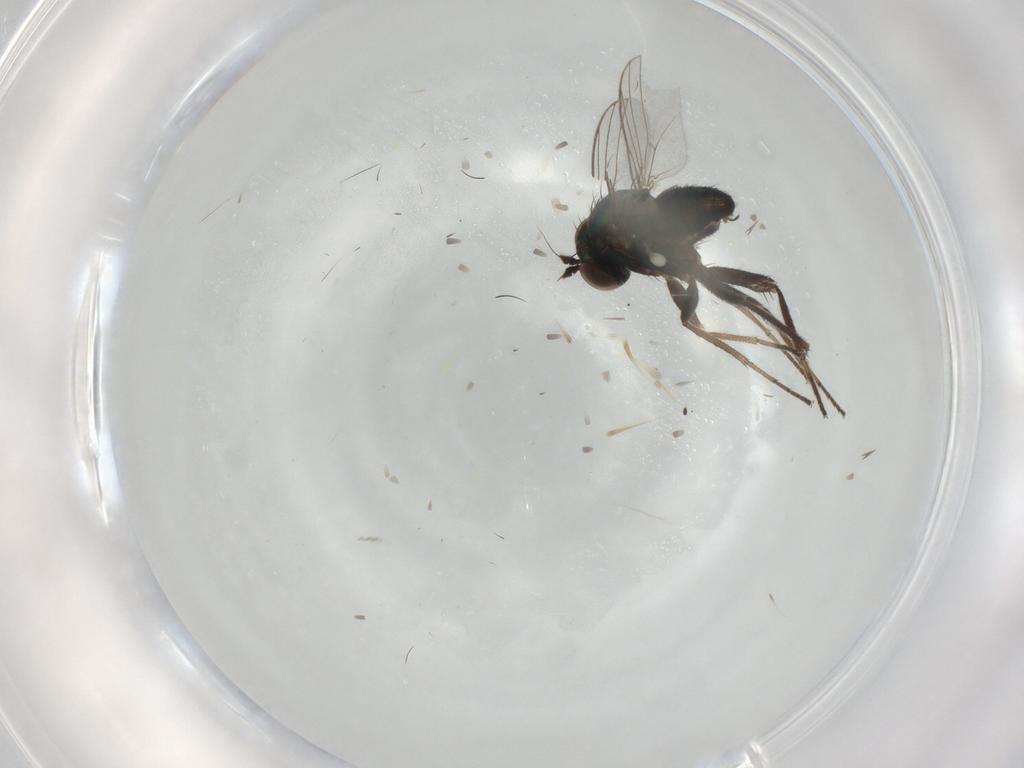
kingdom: Animalia
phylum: Arthropoda
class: Insecta
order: Diptera
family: Dolichopodidae
